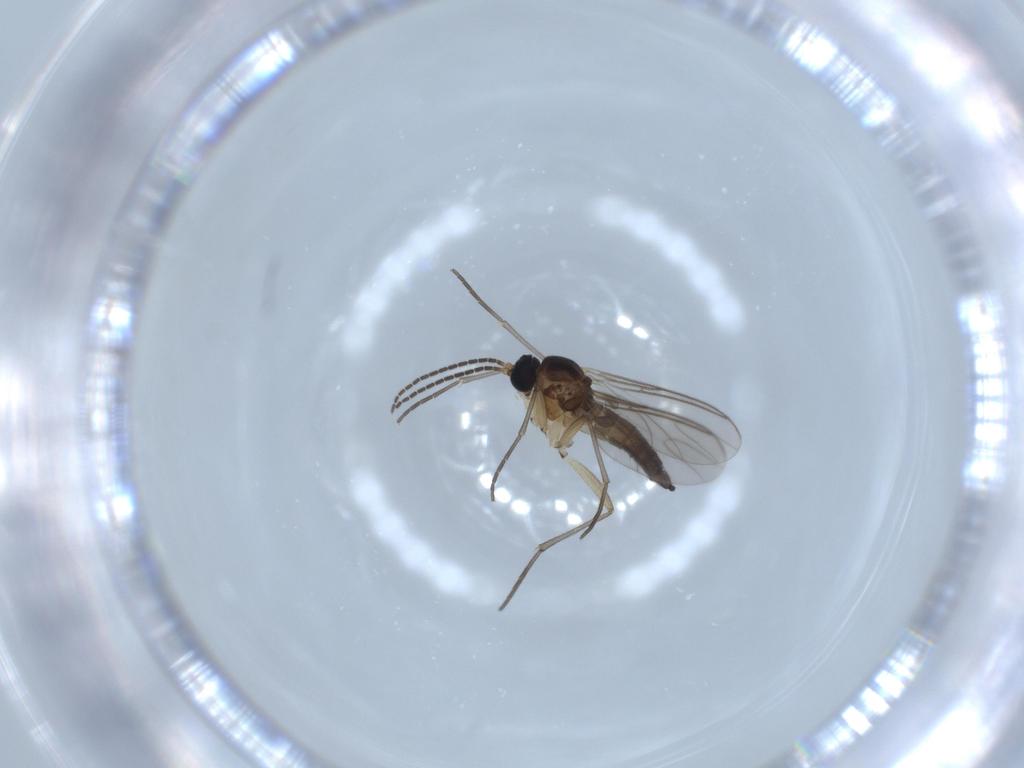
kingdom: Animalia
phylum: Arthropoda
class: Insecta
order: Diptera
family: Sciaridae
